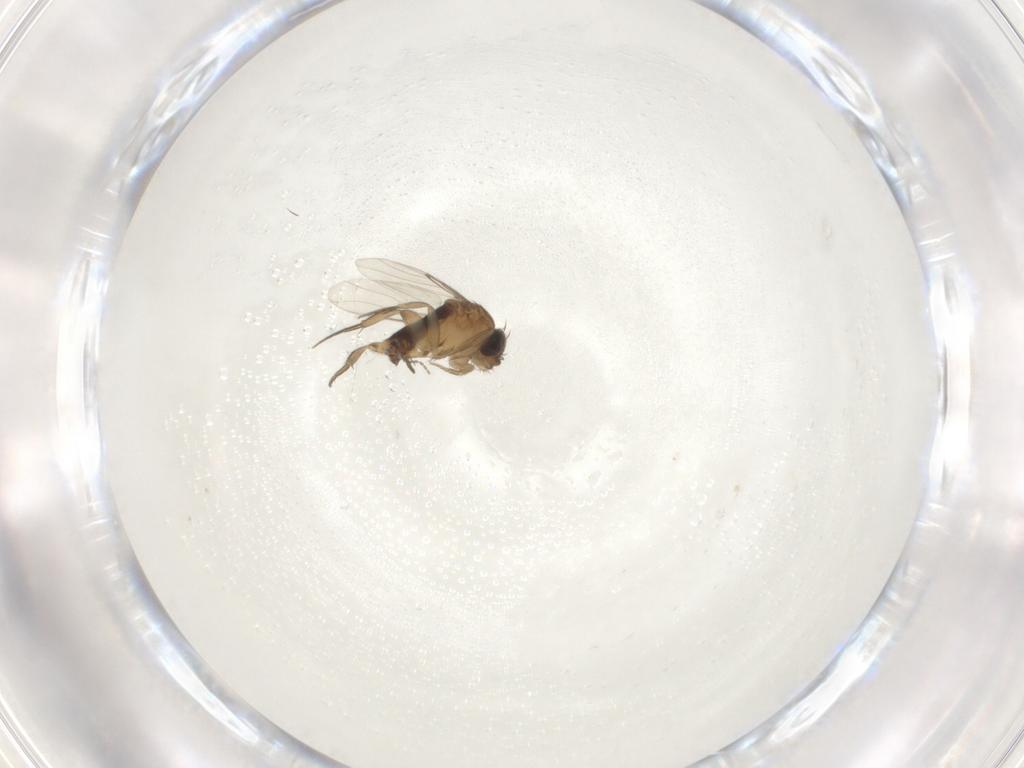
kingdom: Animalia
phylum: Arthropoda
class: Insecta
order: Diptera
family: Phoridae
